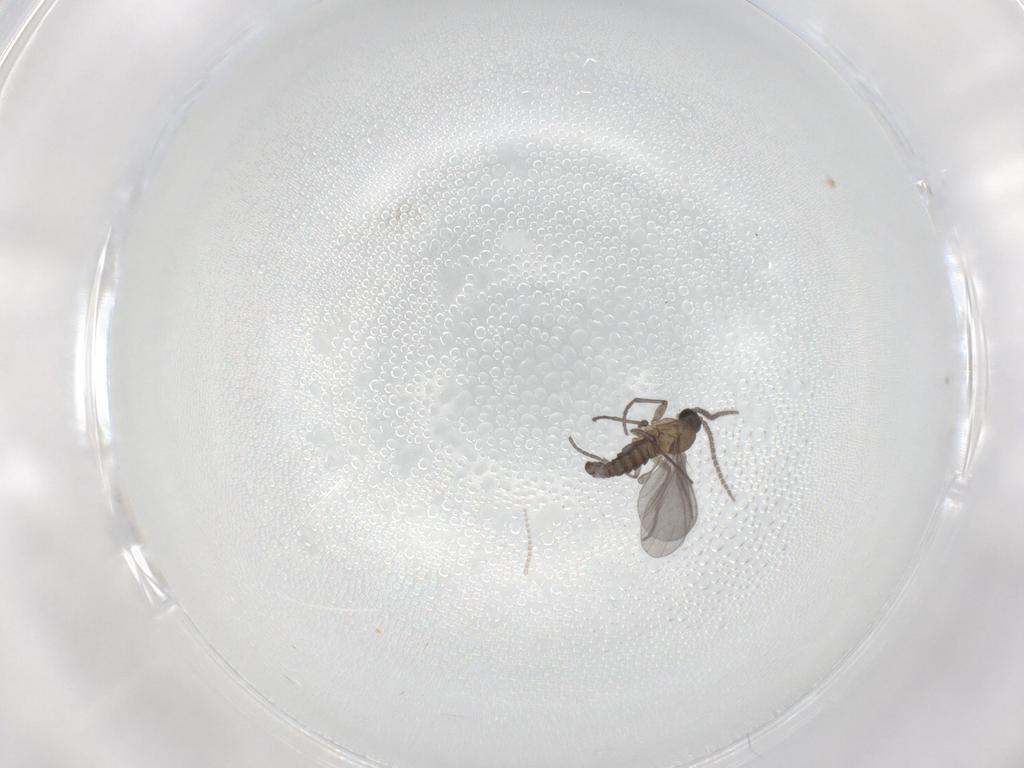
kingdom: Animalia
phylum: Arthropoda
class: Insecta
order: Diptera
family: Sciaridae
